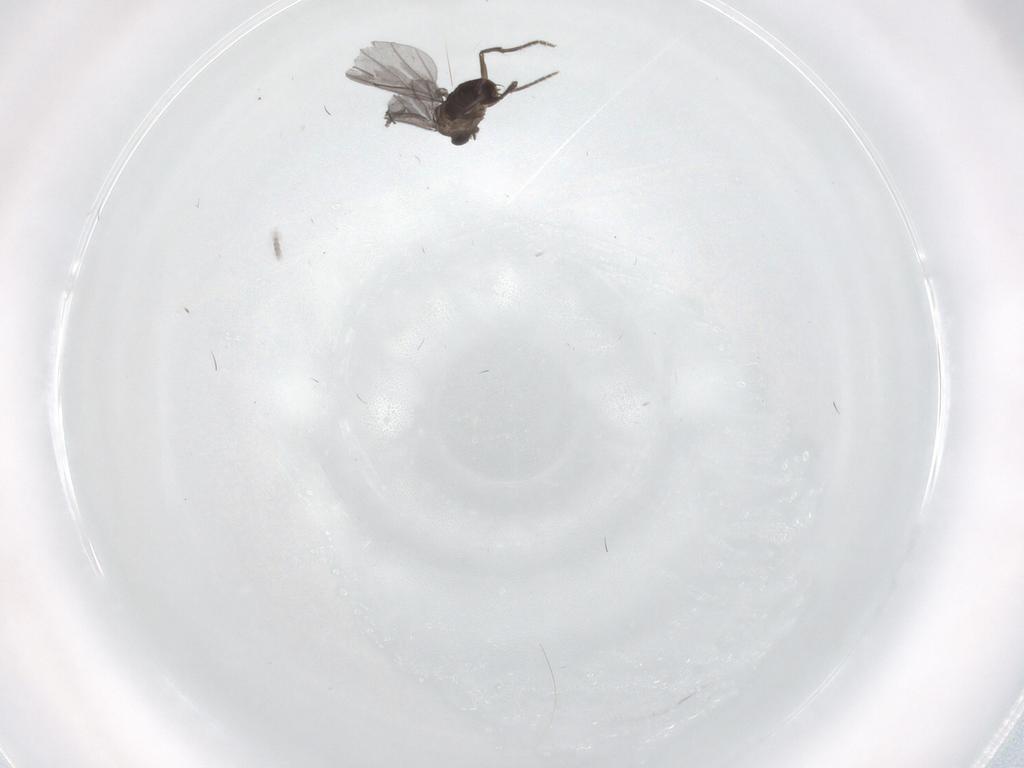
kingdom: Animalia
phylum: Arthropoda
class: Insecta
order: Diptera
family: Phoridae
